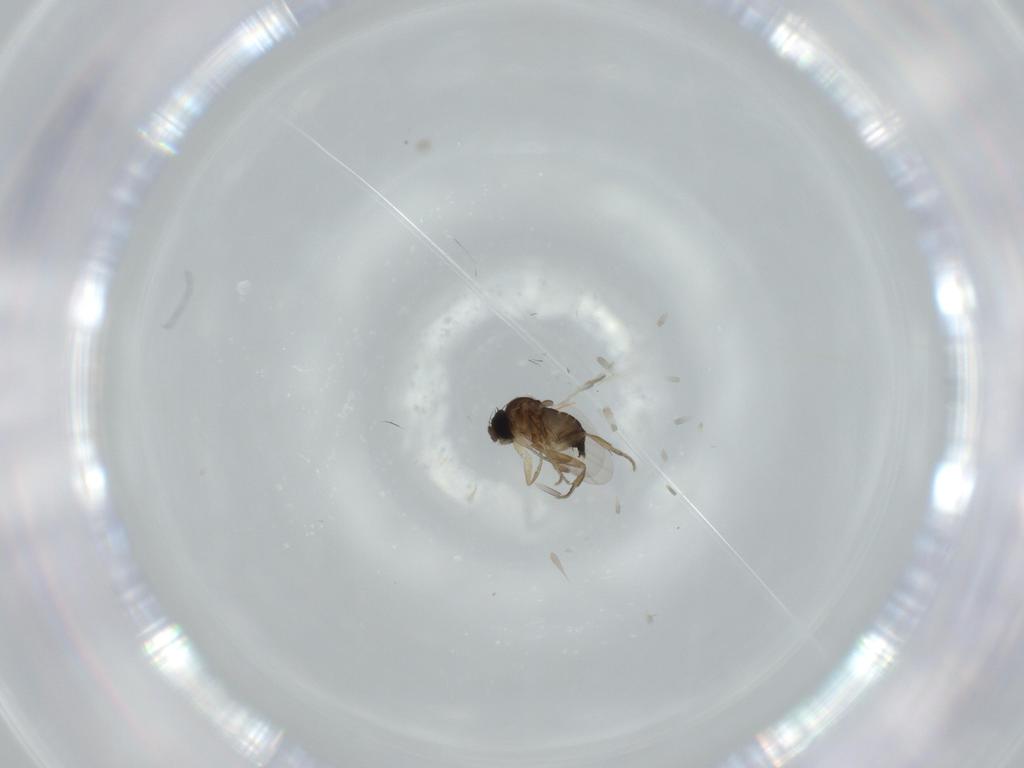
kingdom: Animalia
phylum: Arthropoda
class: Insecta
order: Diptera
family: Phoridae
